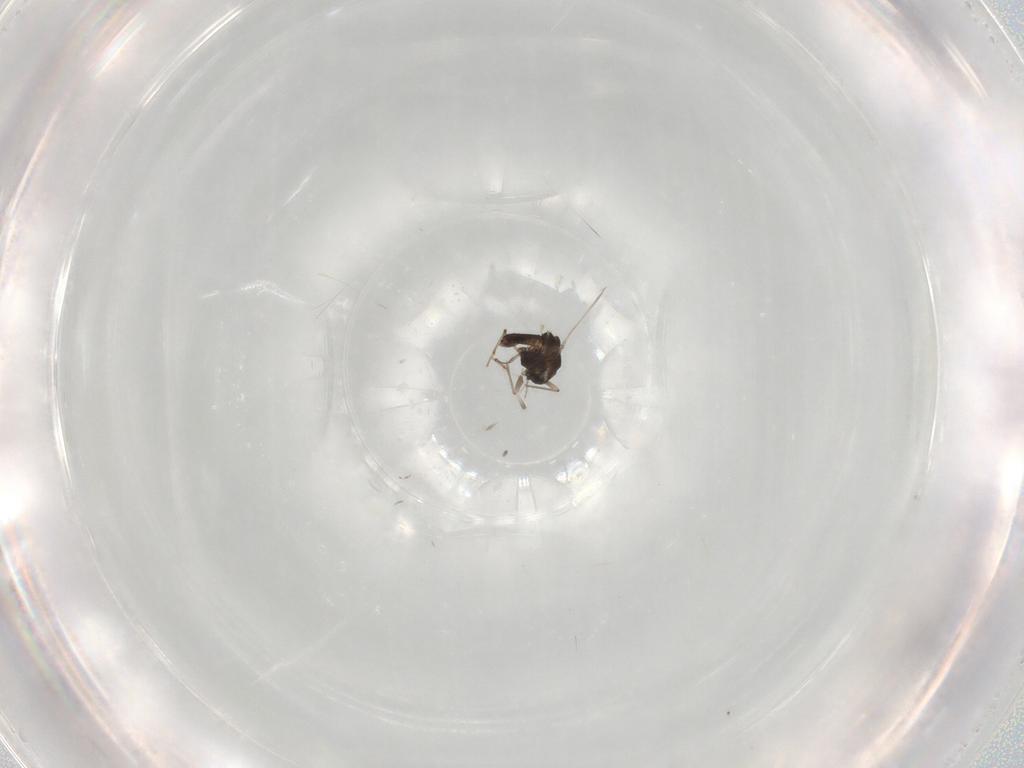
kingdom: Animalia
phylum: Arthropoda
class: Insecta
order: Diptera
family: Chironomidae
